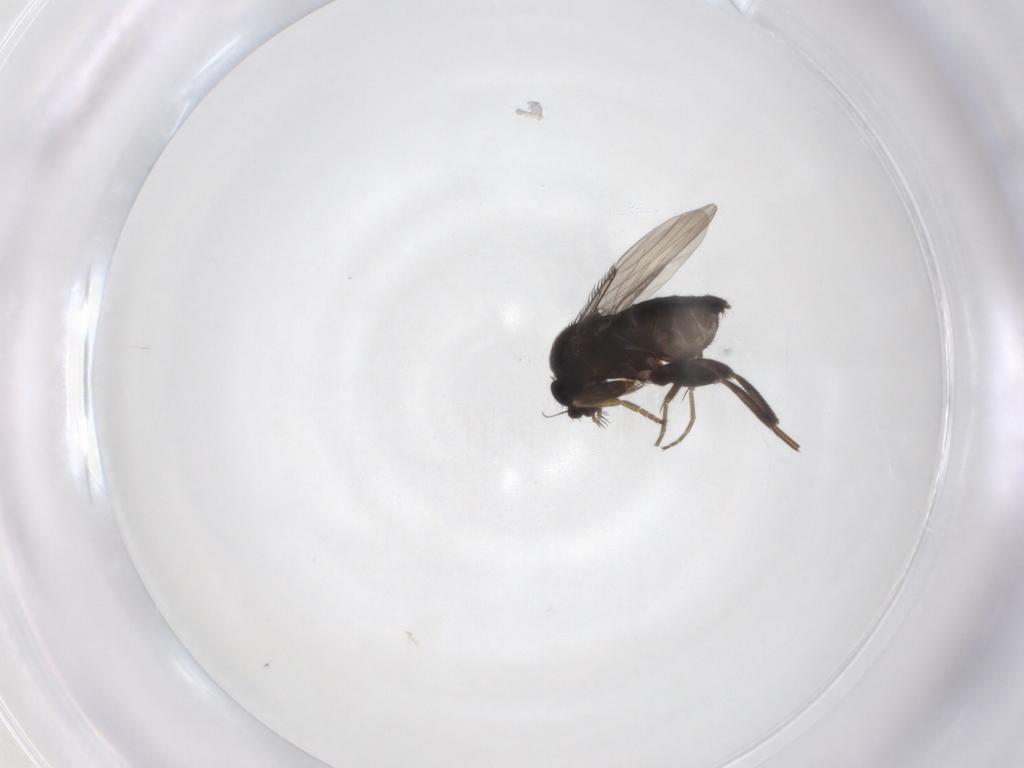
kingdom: Animalia
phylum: Arthropoda
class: Insecta
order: Diptera
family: Phoridae
